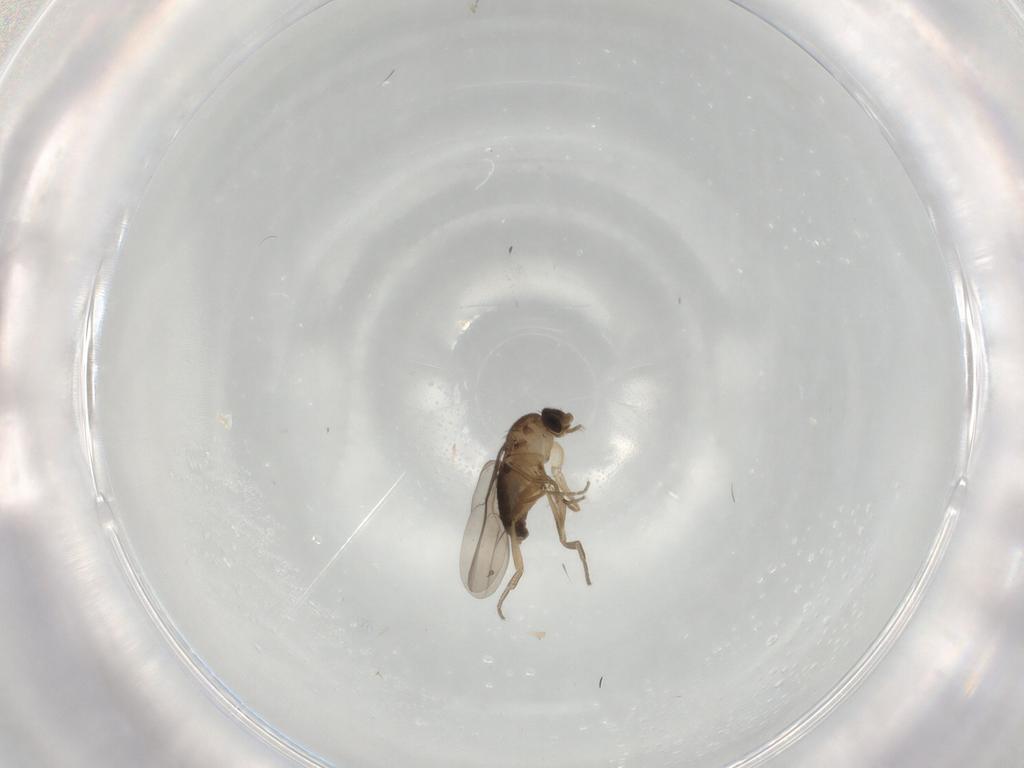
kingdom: Animalia
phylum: Arthropoda
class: Insecta
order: Diptera
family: Phoridae
